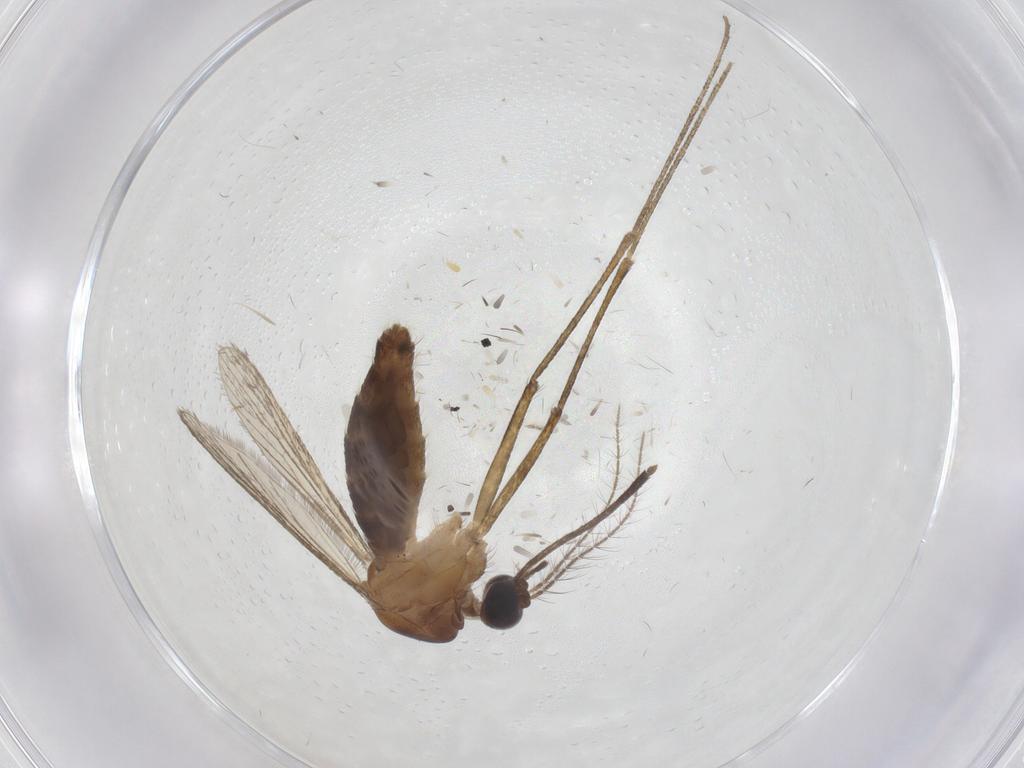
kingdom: Animalia
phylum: Arthropoda
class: Insecta
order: Diptera
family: Culicidae
